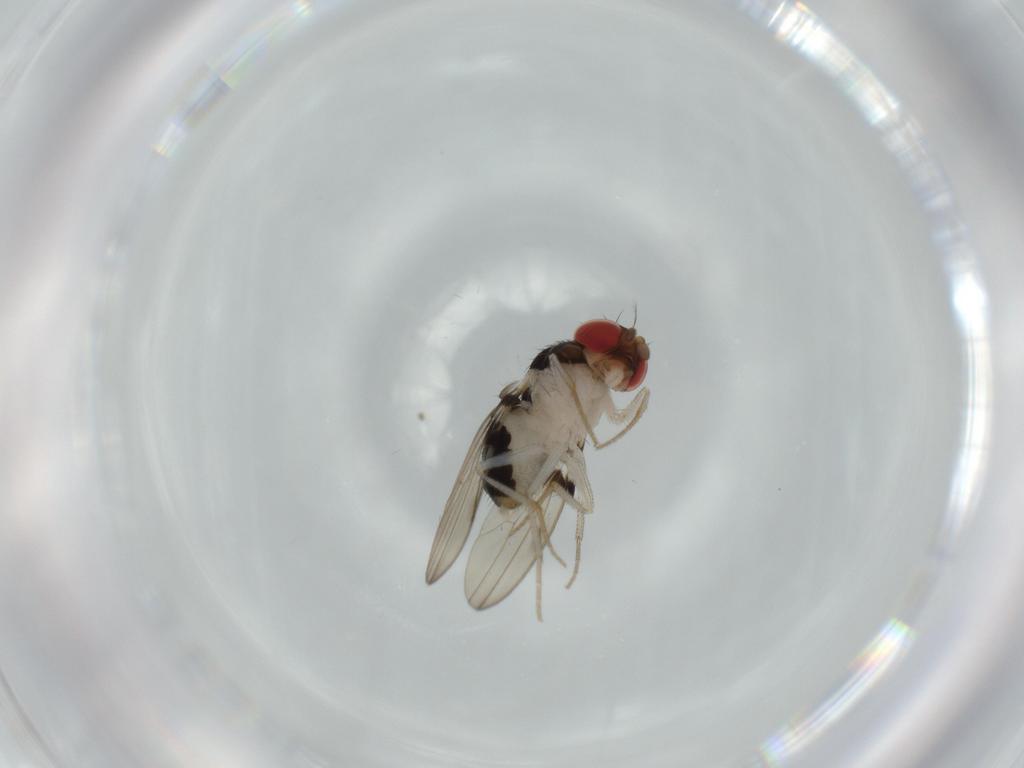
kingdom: Animalia
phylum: Arthropoda
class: Insecta
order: Diptera
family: Drosophilidae
